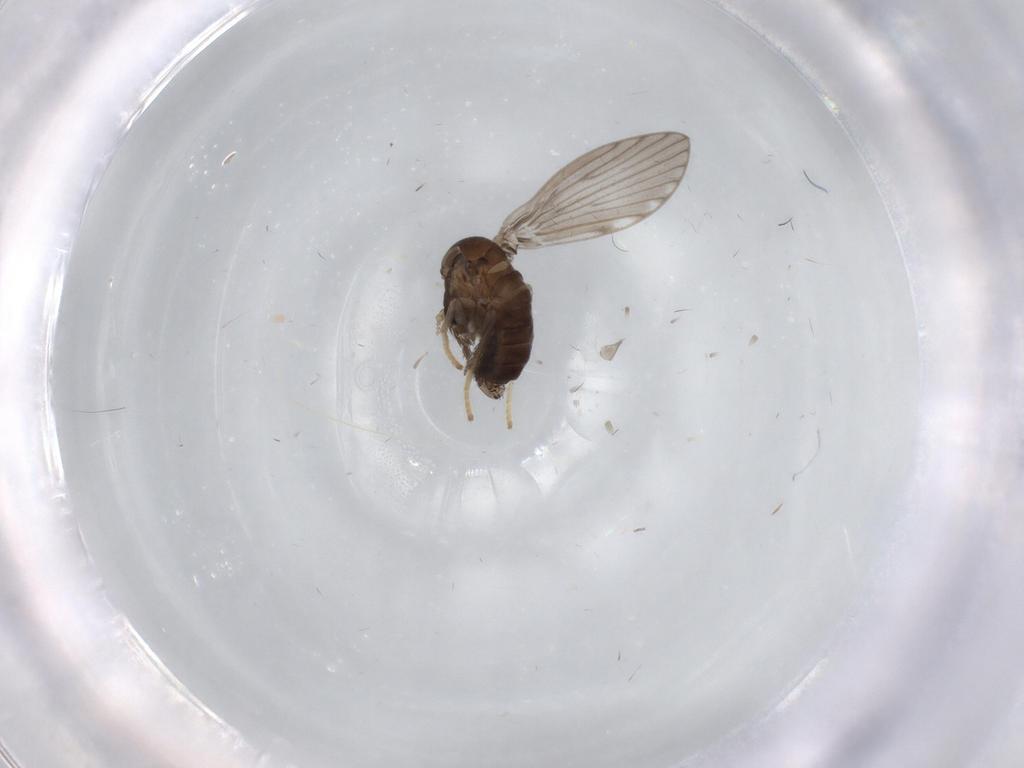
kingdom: Animalia
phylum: Arthropoda
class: Insecta
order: Diptera
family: Psychodidae
